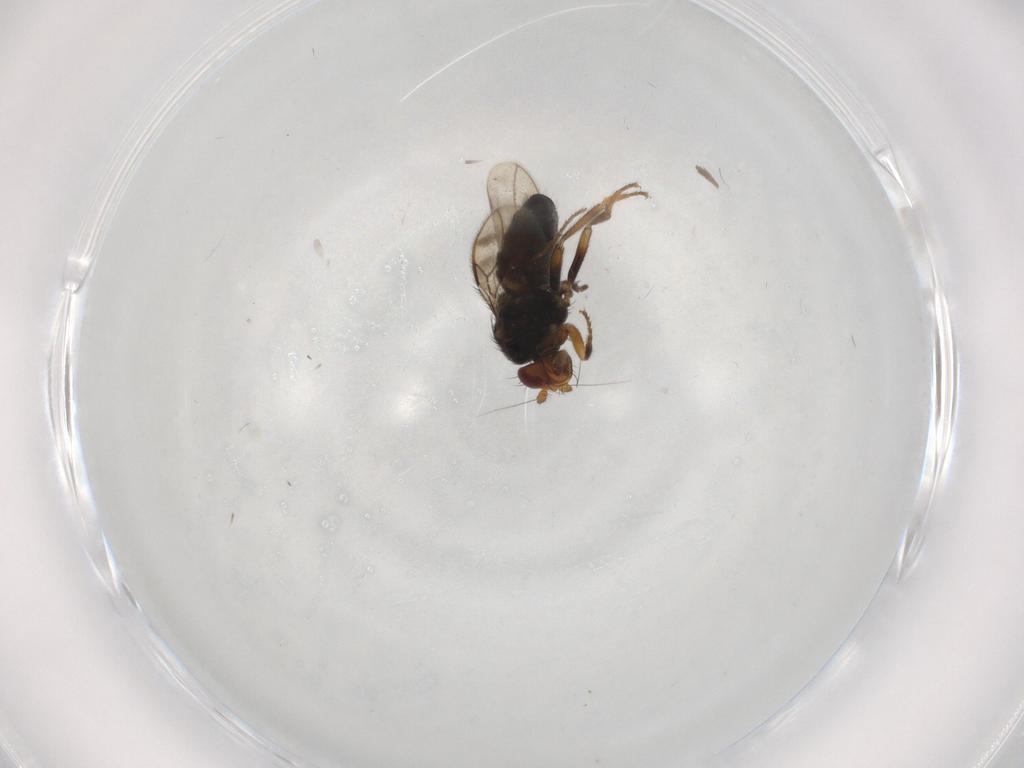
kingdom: Animalia
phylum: Arthropoda
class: Insecta
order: Diptera
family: Sphaeroceridae
